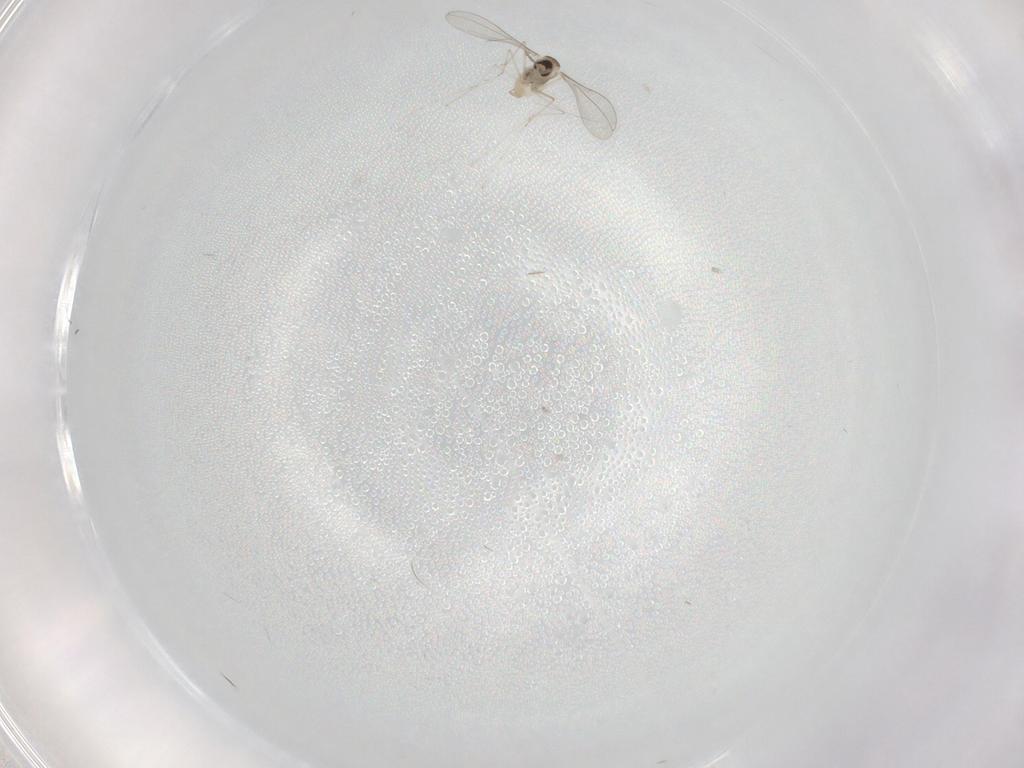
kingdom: Animalia
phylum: Arthropoda
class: Insecta
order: Diptera
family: Cecidomyiidae
